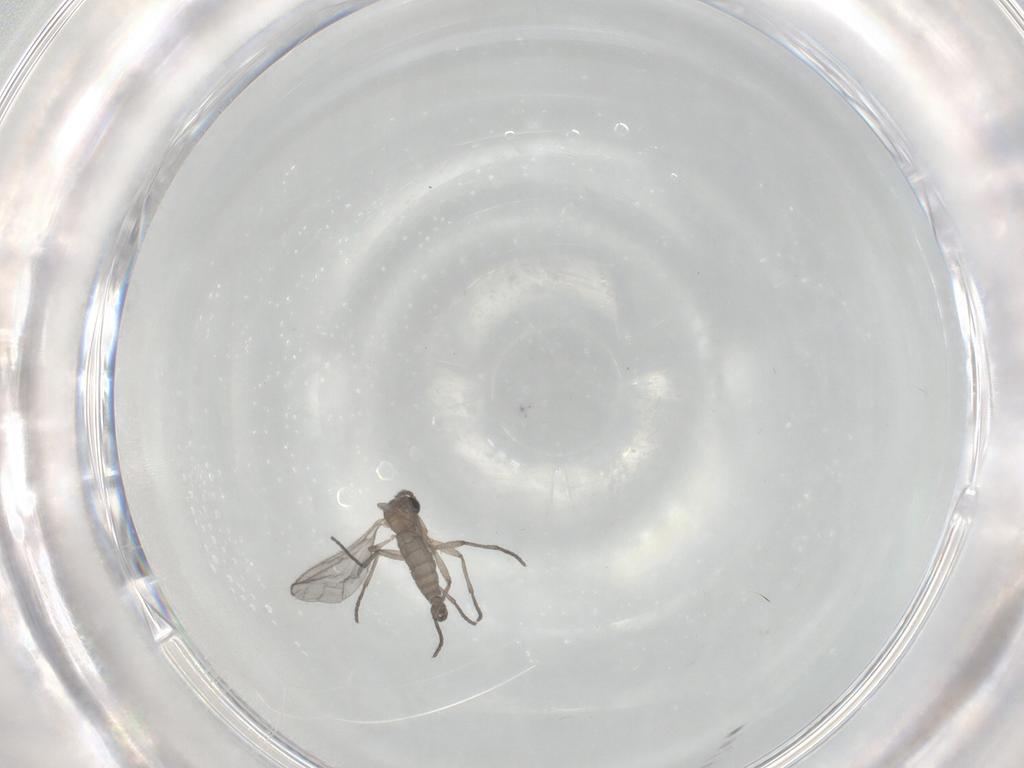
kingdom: Animalia
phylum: Arthropoda
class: Insecta
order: Diptera
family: Sciaridae
